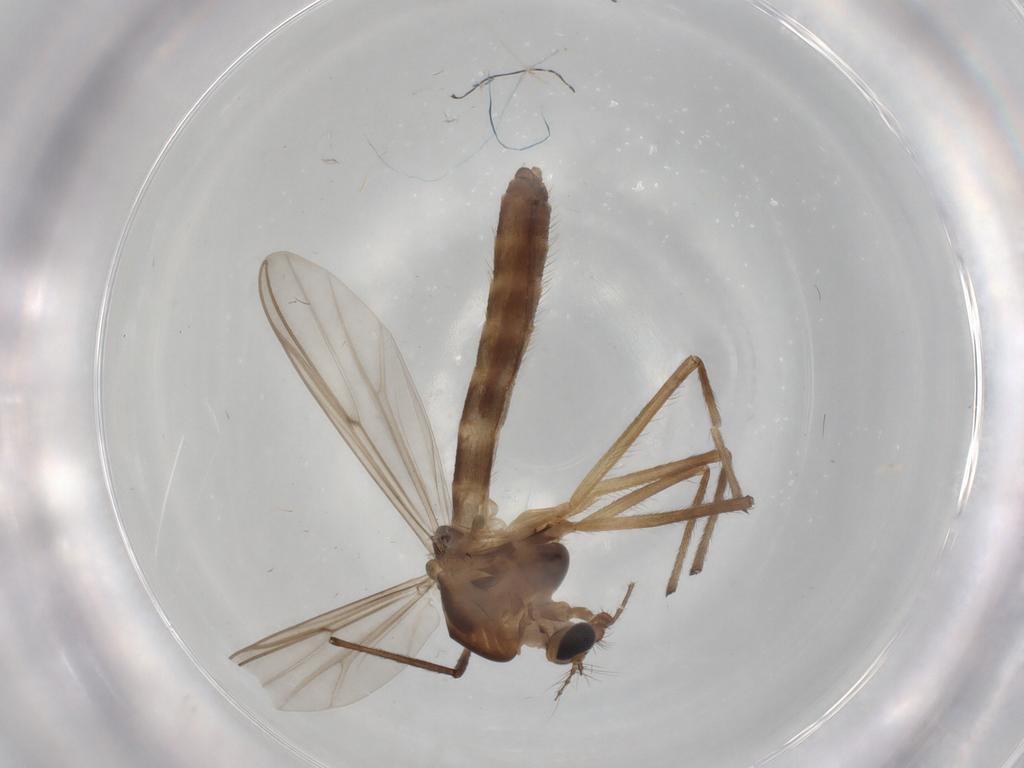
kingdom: Animalia
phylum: Arthropoda
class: Insecta
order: Diptera
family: Chironomidae
